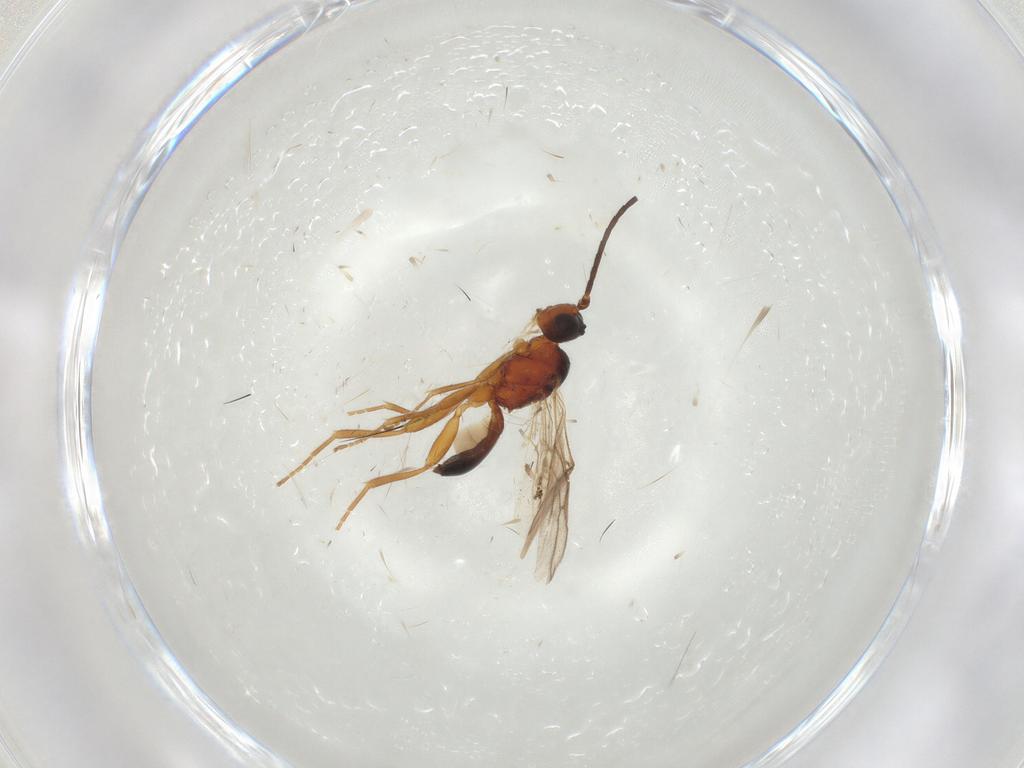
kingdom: Animalia
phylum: Arthropoda
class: Insecta
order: Hymenoptera
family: Braconidae
